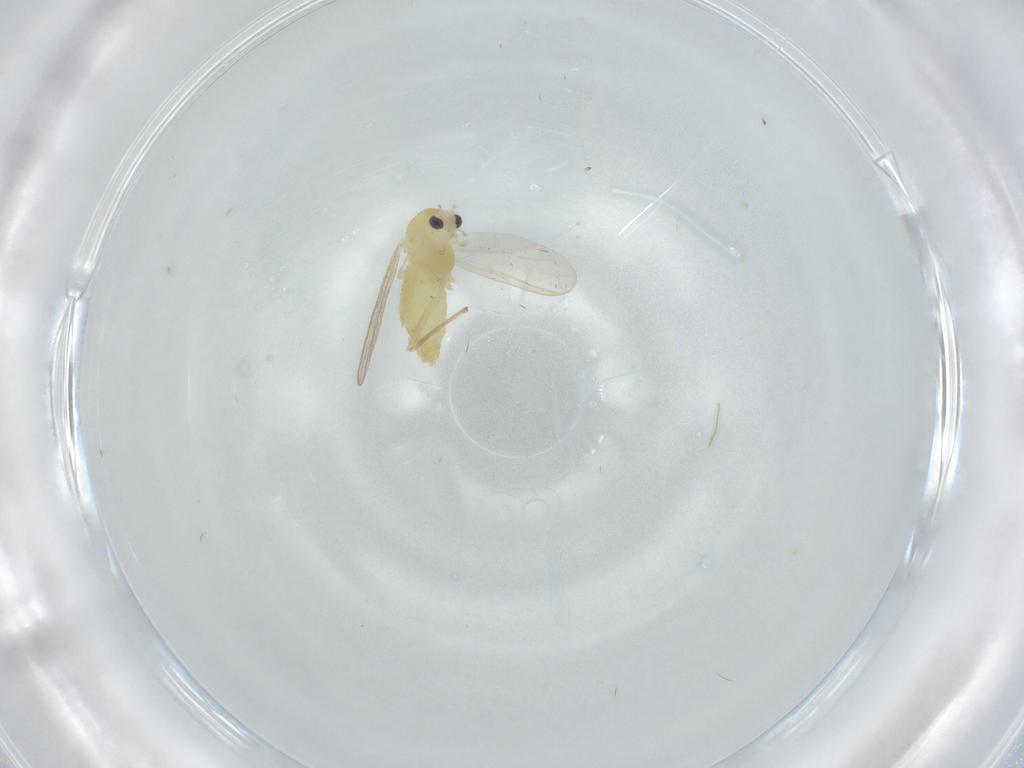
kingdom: Animalia
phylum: Arthropoda
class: Insecta
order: Diptera
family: Chironomidae
